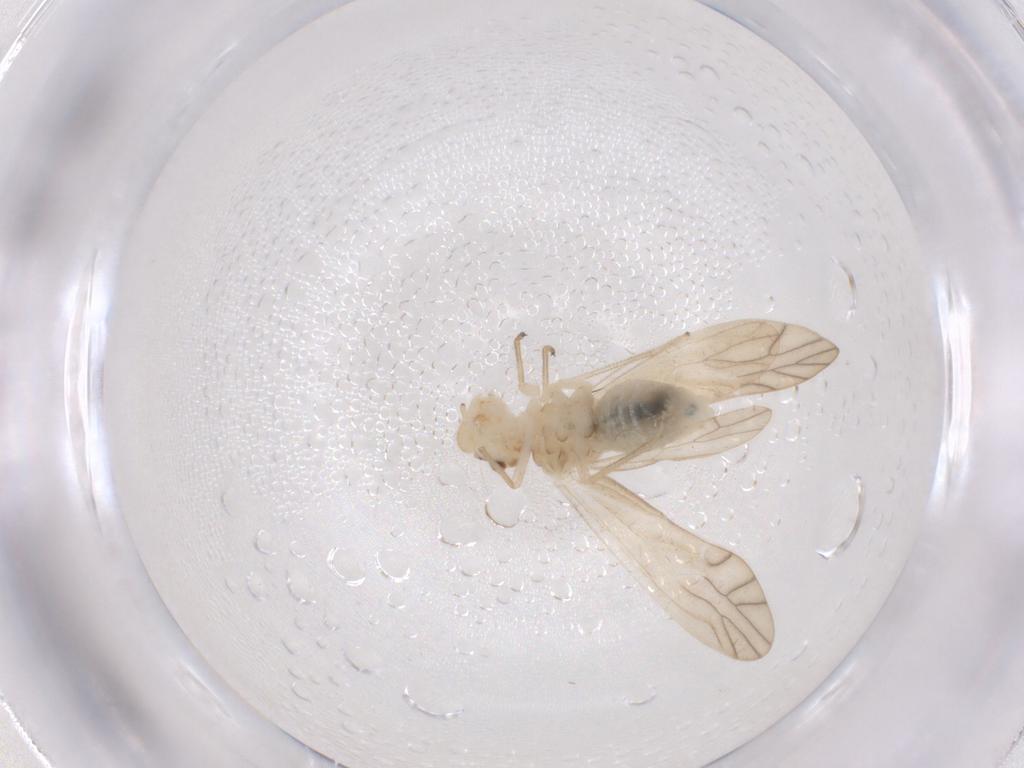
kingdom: Animalia
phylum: Arthropoda
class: Insecta
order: Psocodea
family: Caeciliusidae
